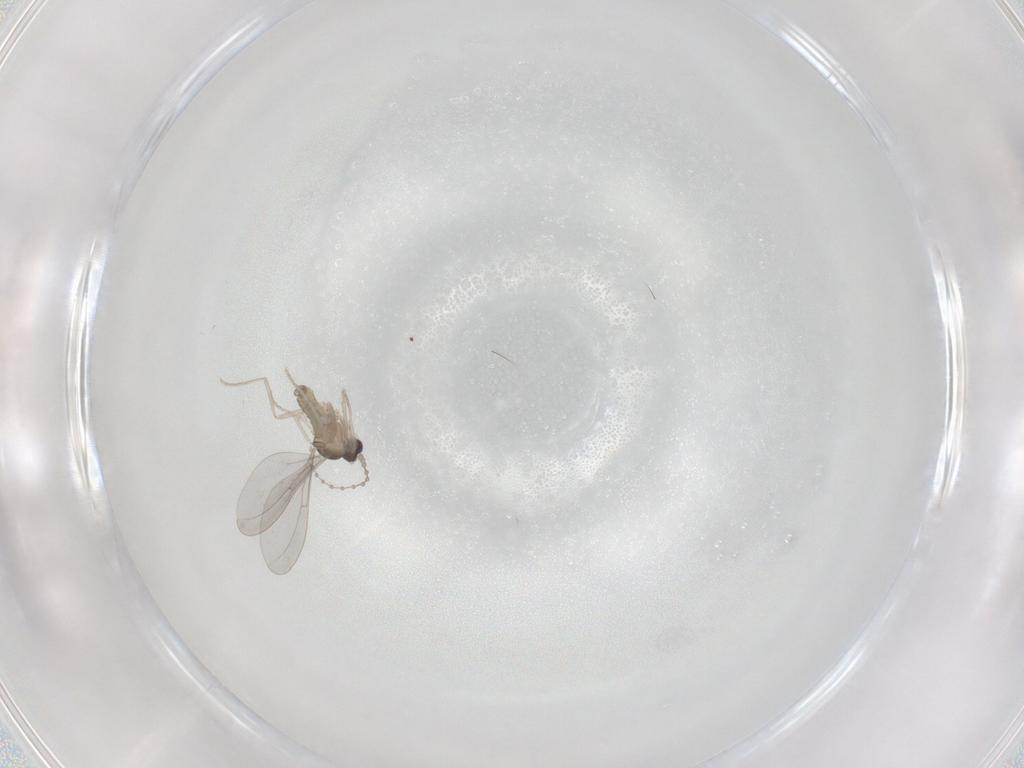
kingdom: Animalia
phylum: Arthropoda
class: Insecta
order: Diptera
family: Cecidomyiidae
